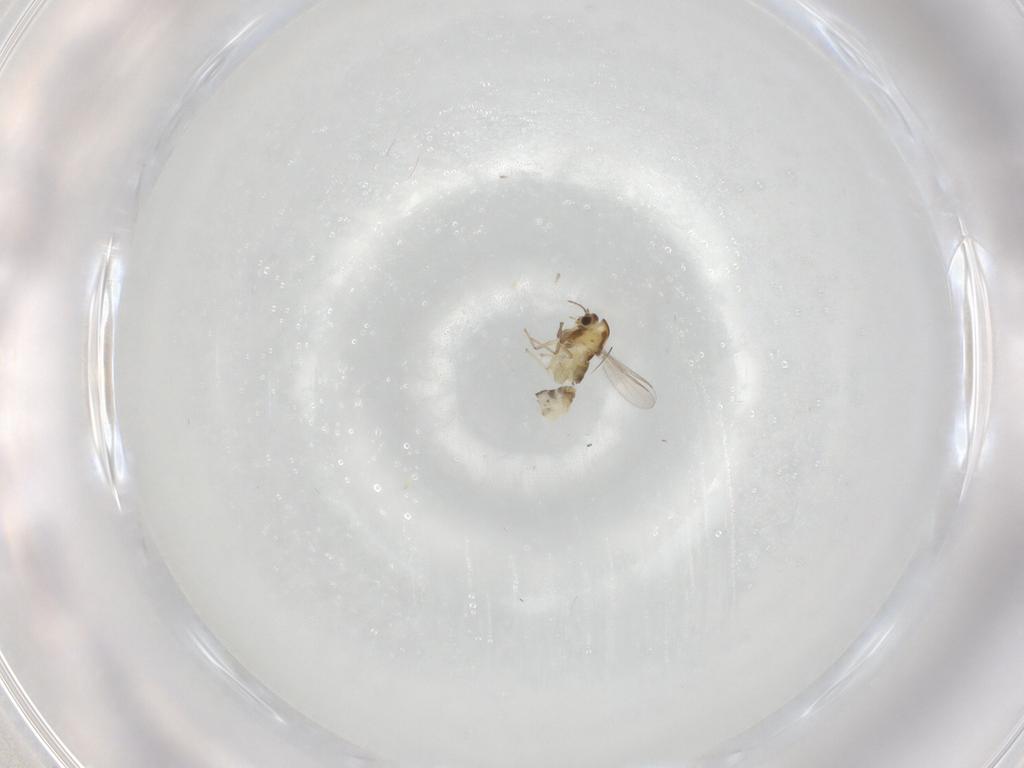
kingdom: Animalia
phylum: Arthropoda
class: Insecta
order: Diptera
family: Chironomidae
